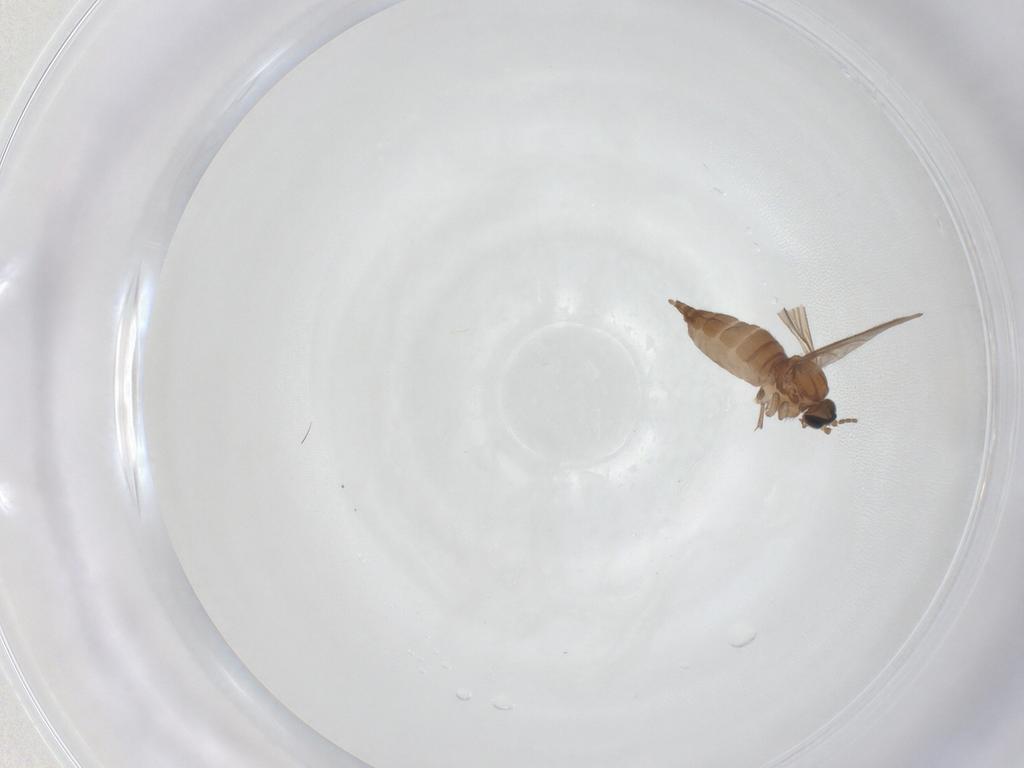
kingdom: Animalia
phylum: Arthropoda
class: Insecta
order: Diptera
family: Sciaridae
